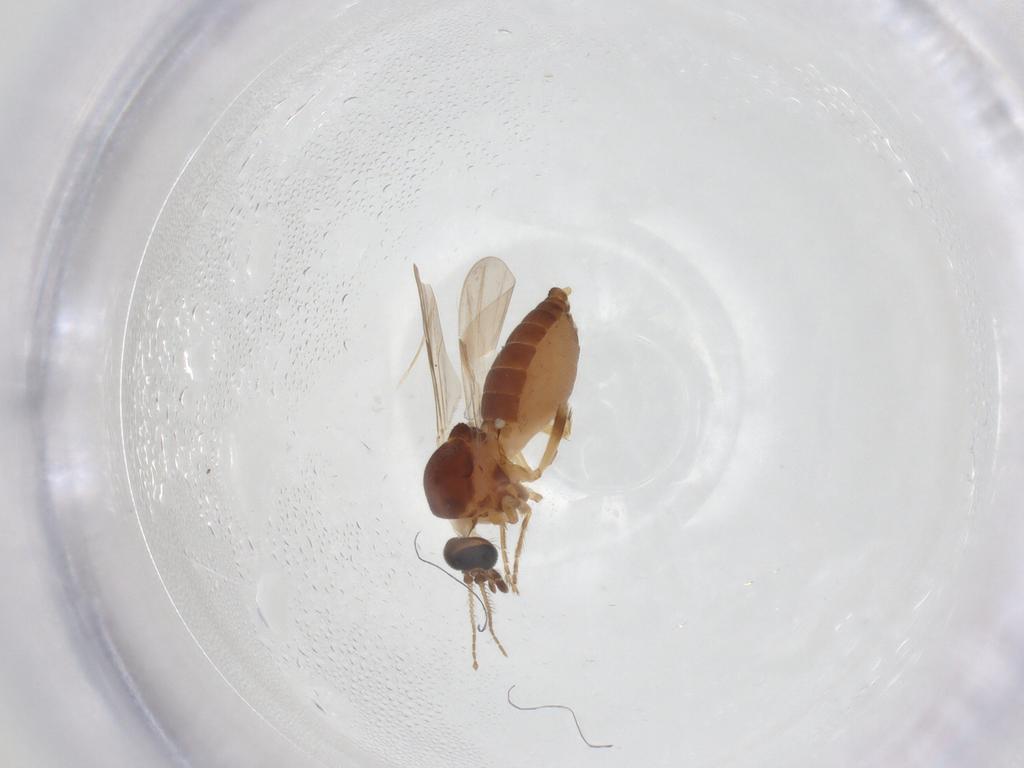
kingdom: Animalia
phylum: Arthropoda
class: Insecta
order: Diptera
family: Ceratopogonidae
